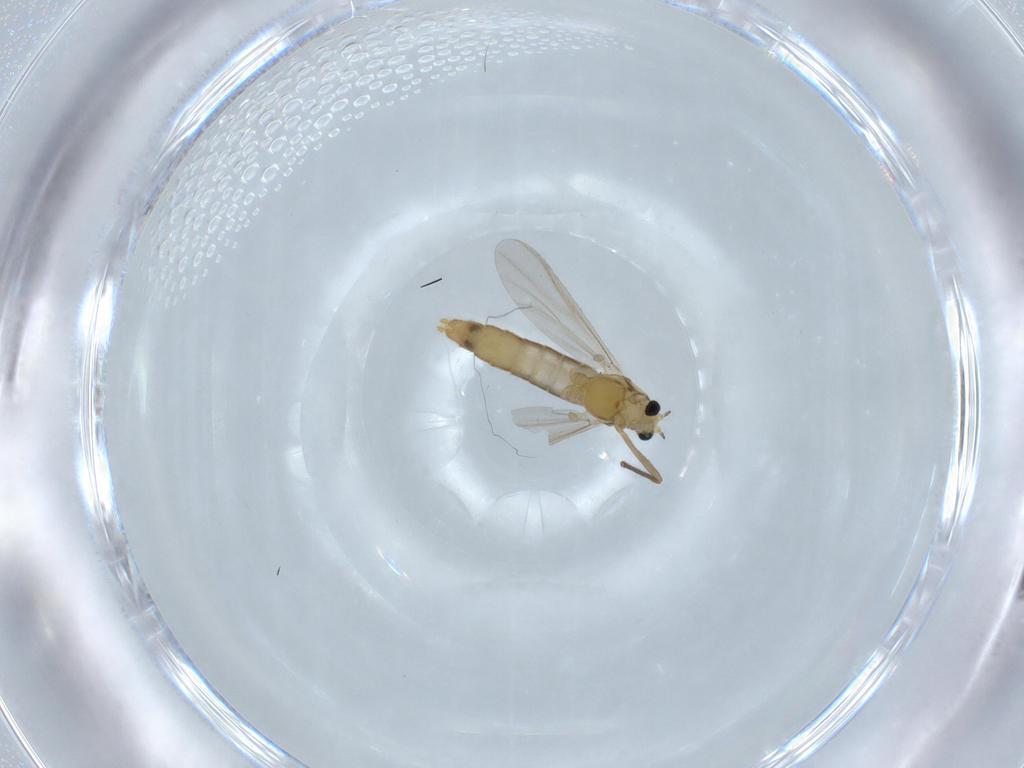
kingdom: Animalia
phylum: Arthropoda
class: Insecta
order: Diptera
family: Chironomidae
